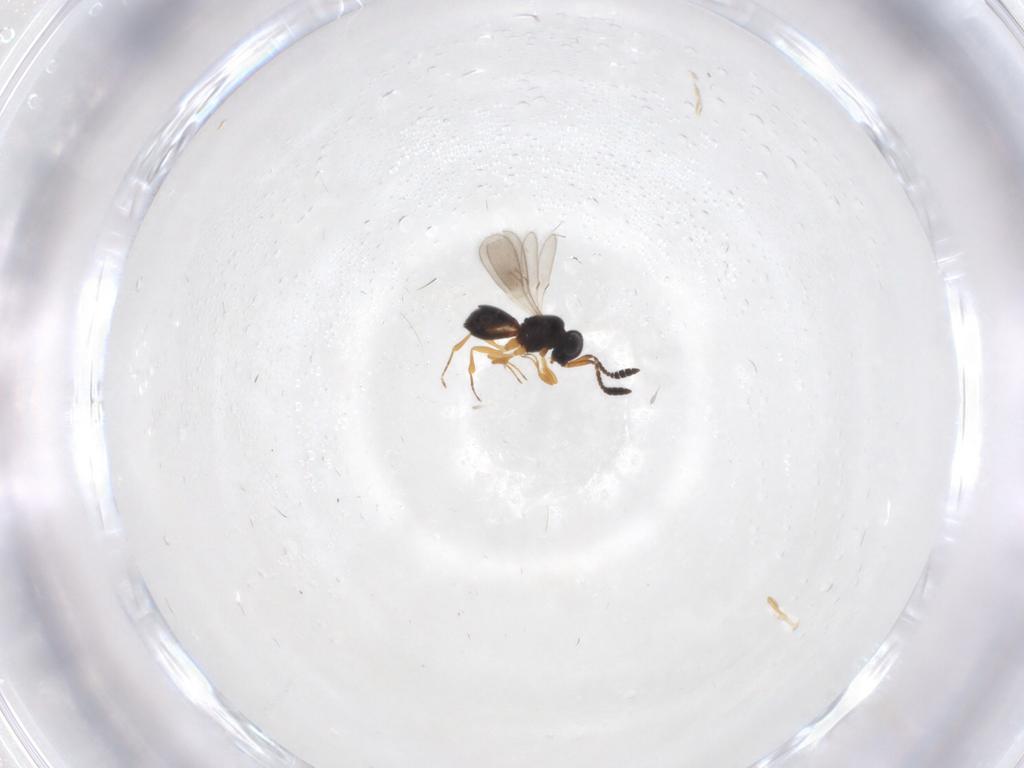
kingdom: Animalia
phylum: Arthropoda
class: Insecta
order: Hymenoptera
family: Scelionidae
